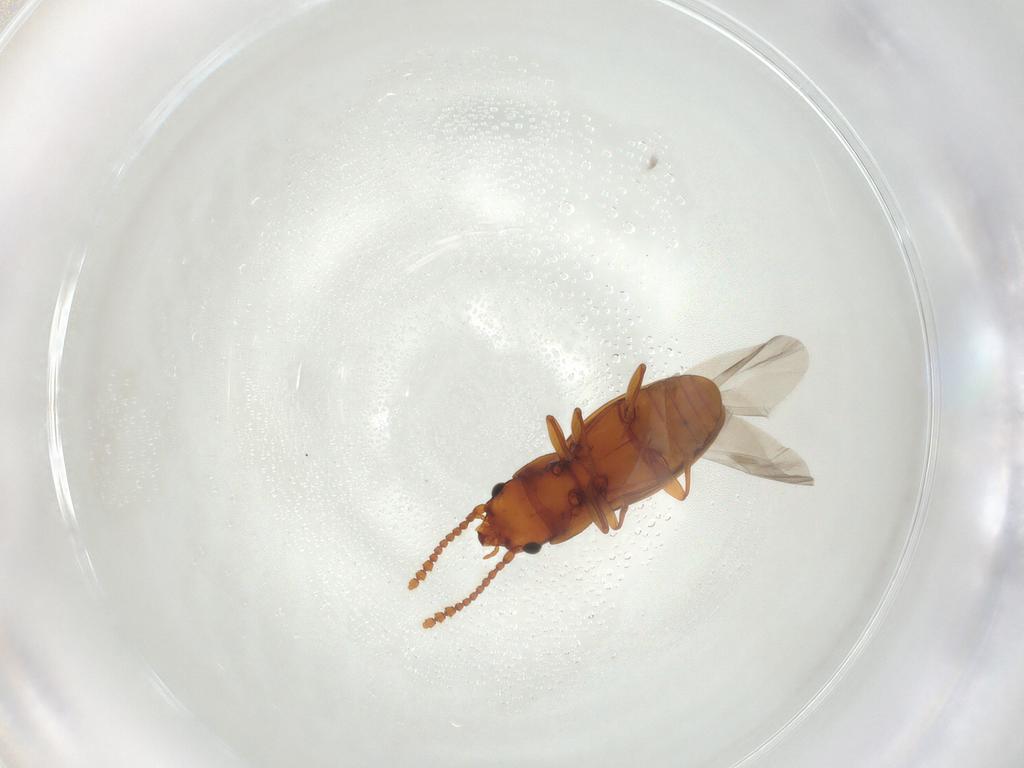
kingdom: Animalia
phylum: Arthropoda
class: Insecta
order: Coleoptera
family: Laemophloeidae
